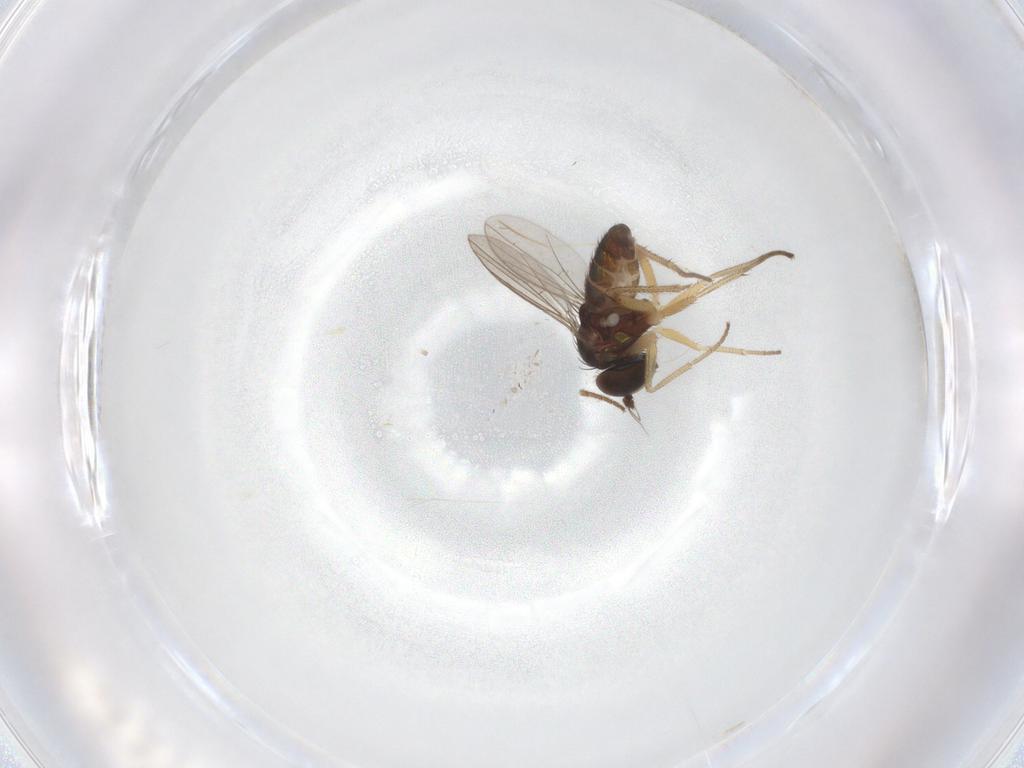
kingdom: Animalia
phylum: Arthropoda
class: Insecta
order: Diptera
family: Cecidomyiidae
